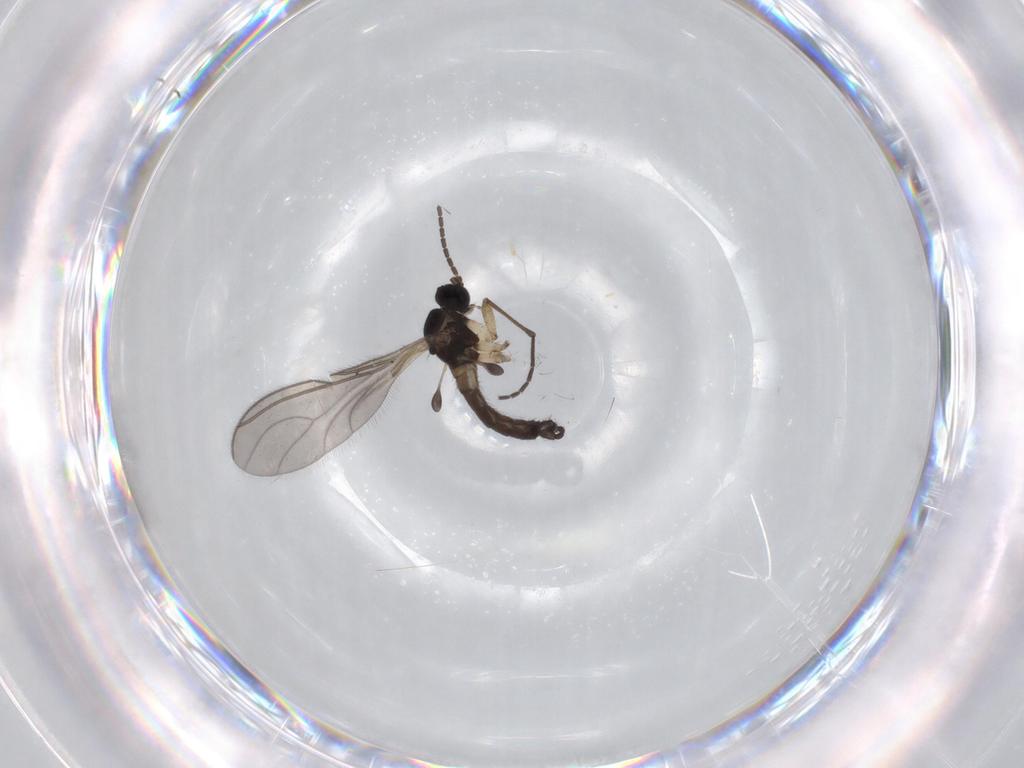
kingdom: Animalia
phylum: Arthropoda
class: Insecta
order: Diptera
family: Sciaridae
